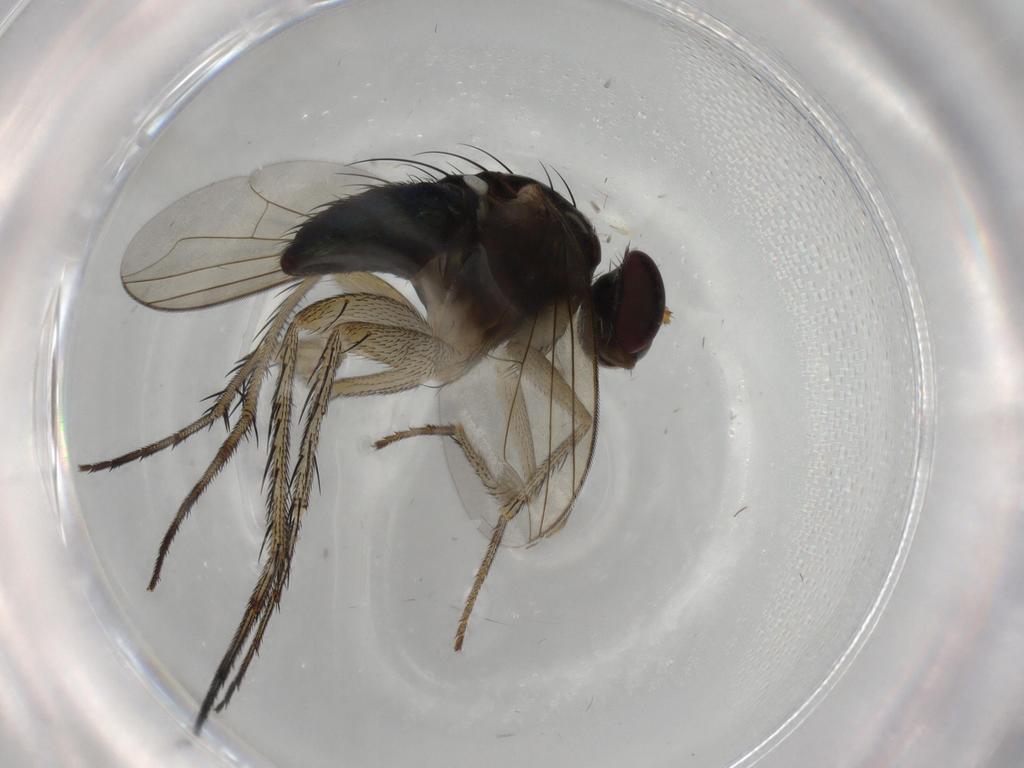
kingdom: Animalia
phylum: Arthropoda
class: Insecta
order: Diptera
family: Dolichopodidae
